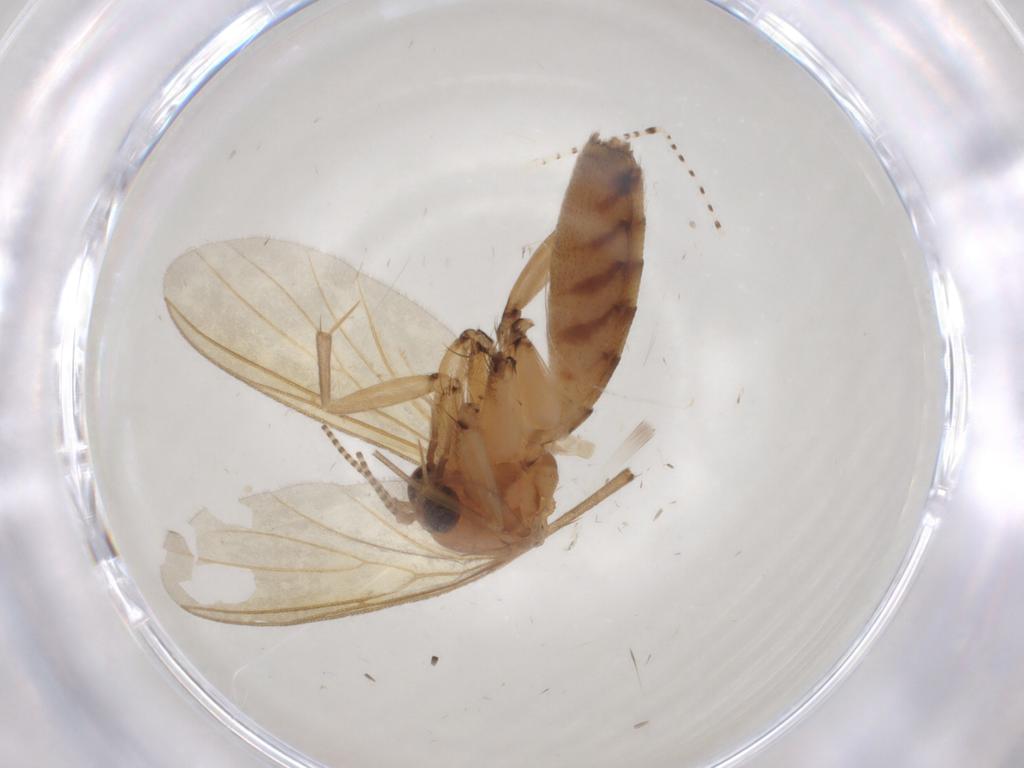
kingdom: Animalia
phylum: Arthropoda
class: Insecta
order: Diptera
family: Mycetophilidae
